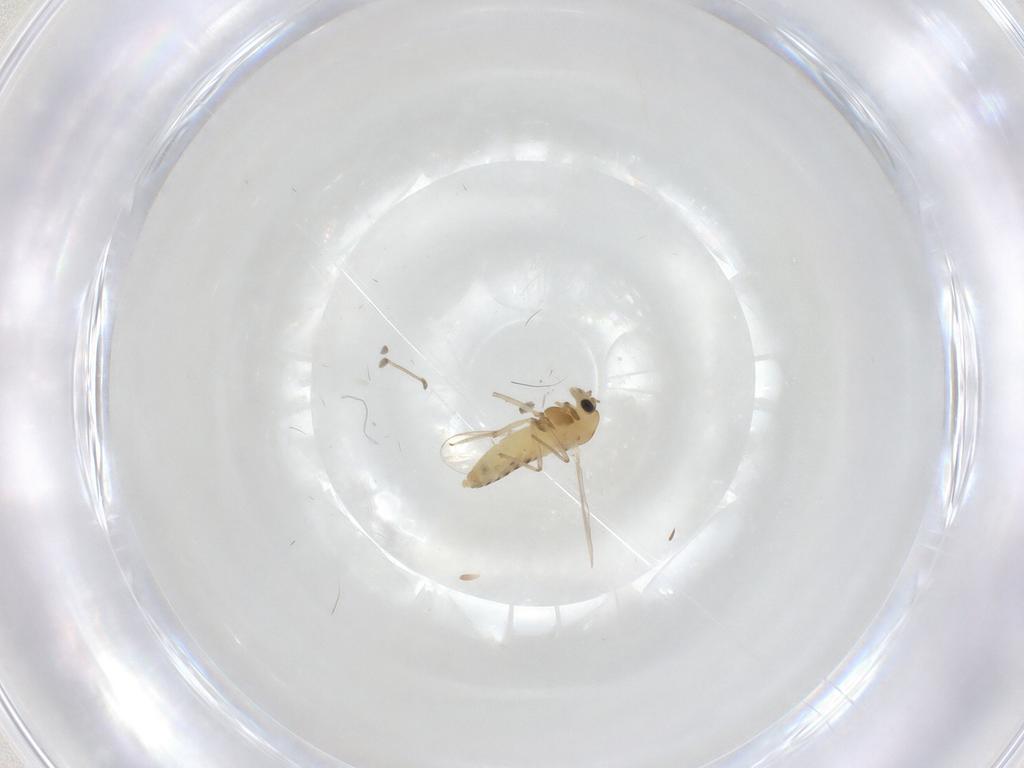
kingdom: Animalia
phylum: Arthropoda
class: Insecta
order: Diptera
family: Chironomidae
